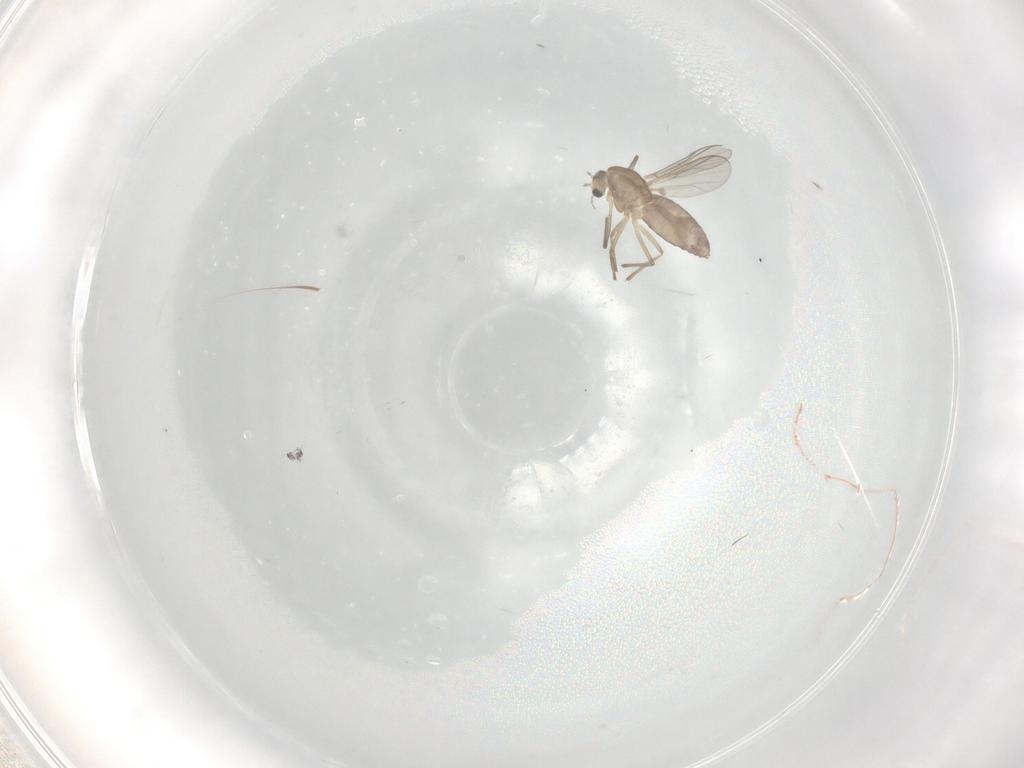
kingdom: Animalia
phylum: Arthropoda
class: Insecta
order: Diptera
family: Chironomidae
